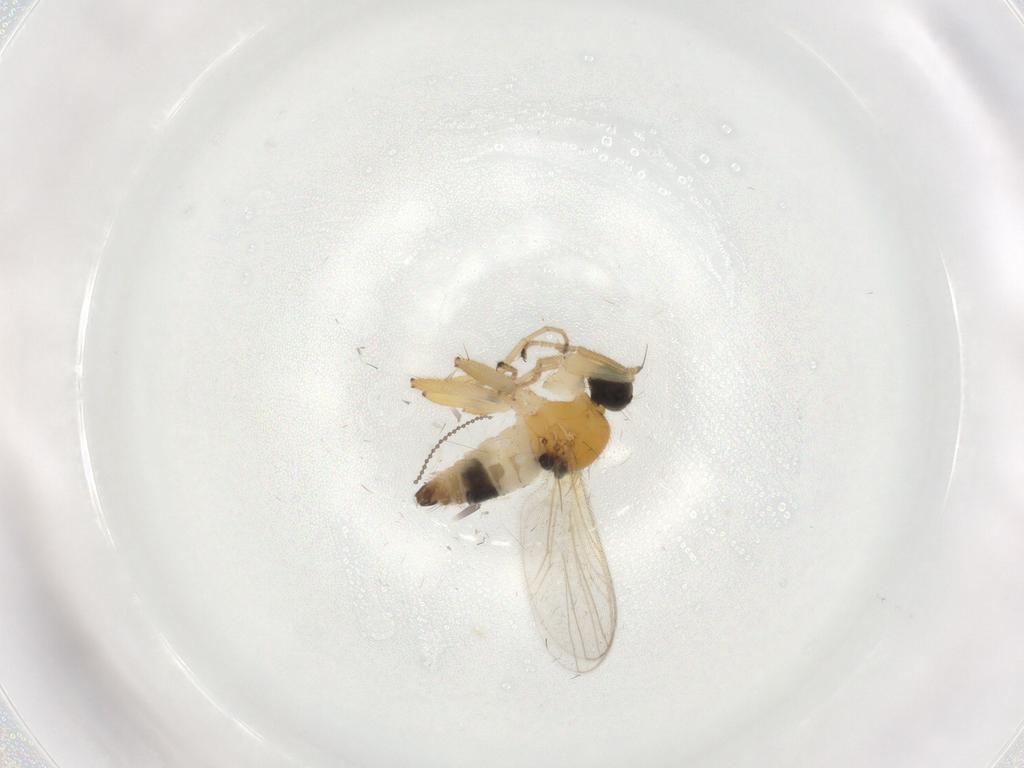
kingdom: Animalia
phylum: Arthropoda
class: Insecta
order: Diptera
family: Hybotidae
